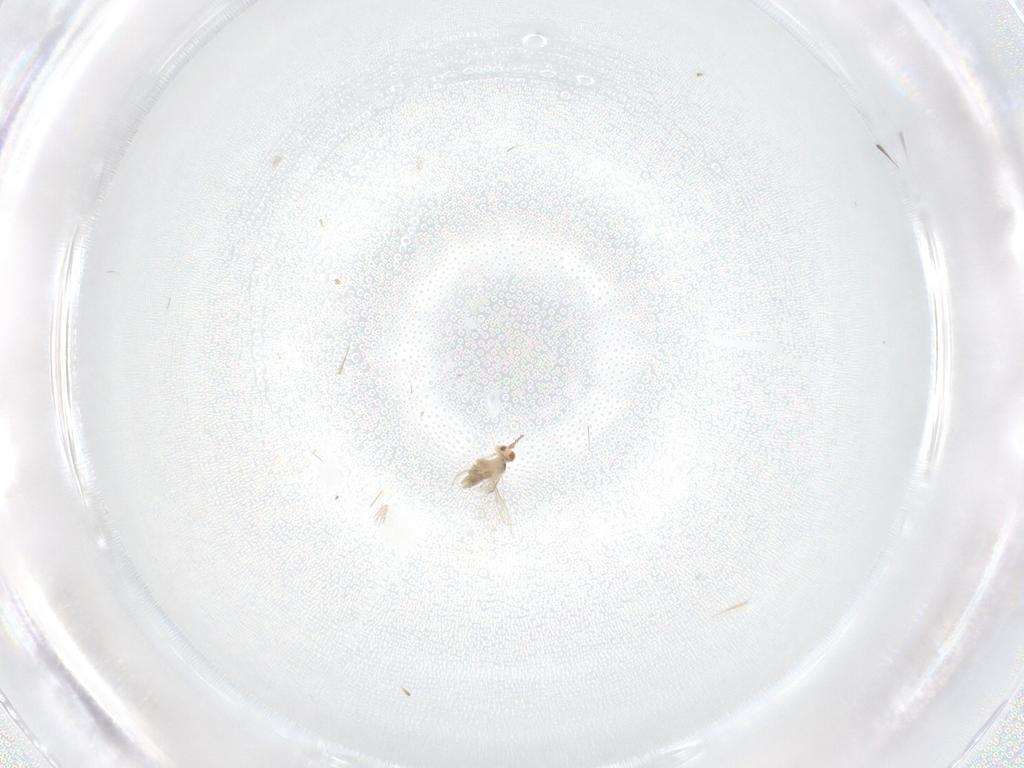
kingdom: Animalia
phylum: Arthropoda
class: Insecta
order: Diptera
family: Cecidomyiidae
